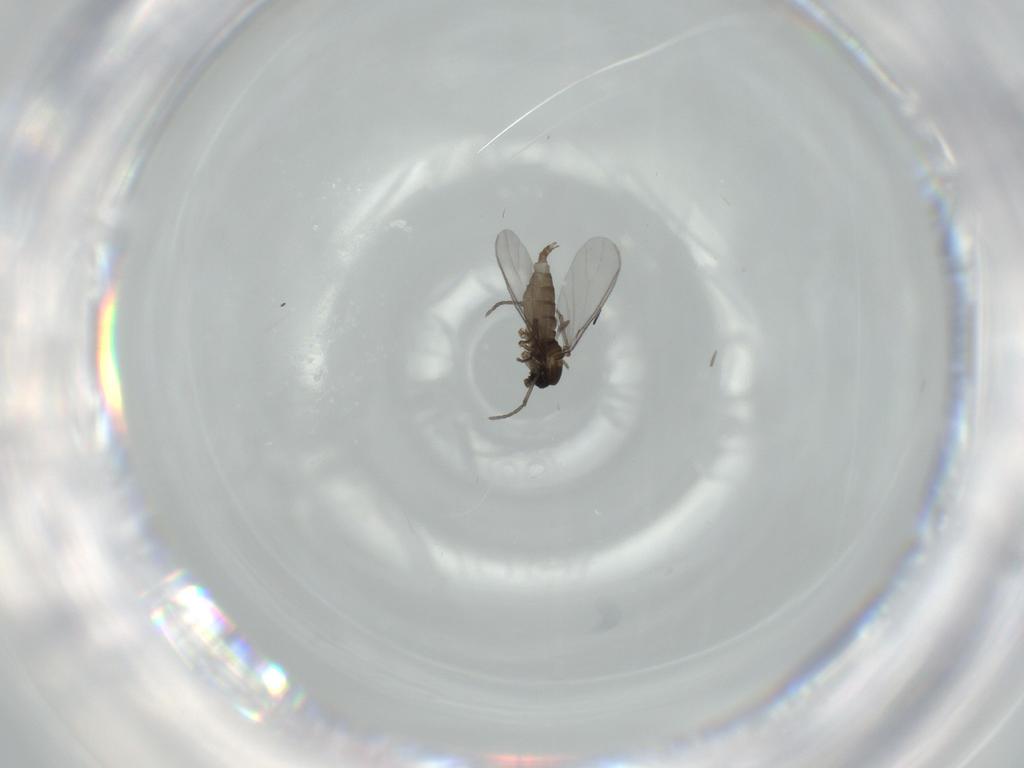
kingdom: Animalia
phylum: Arthropoda
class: Insecta
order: Diptera
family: Sciaridae
